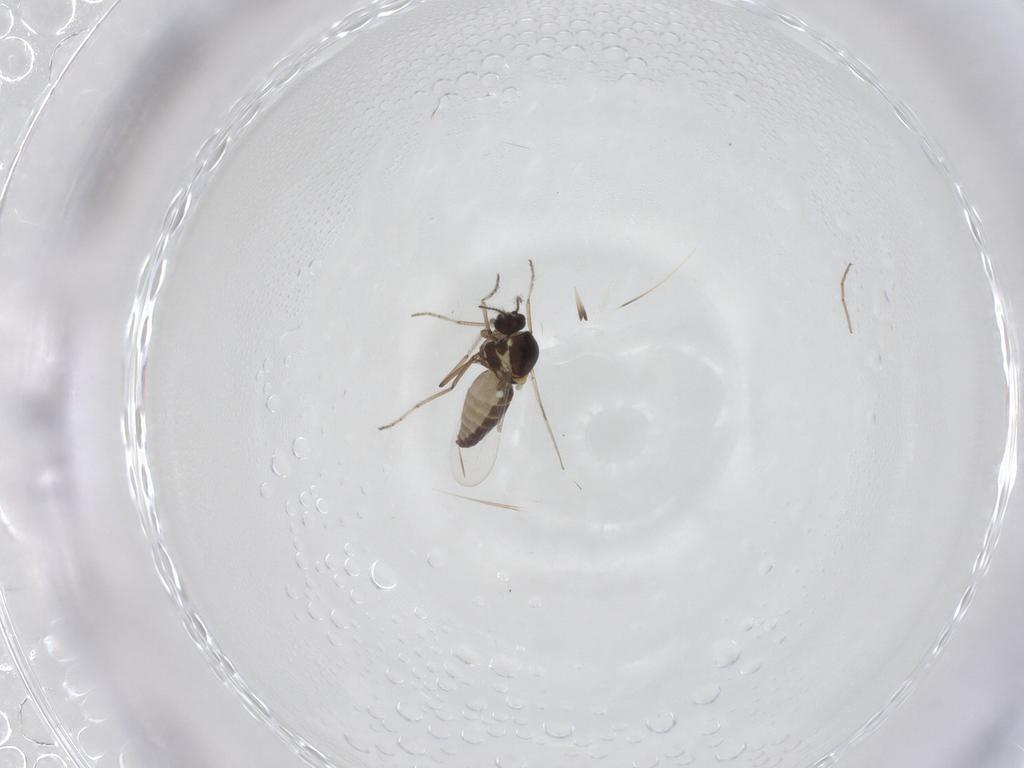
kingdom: Animalia
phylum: Arthropoda
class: Insecta
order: Diptera
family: Ceratopogonidae
